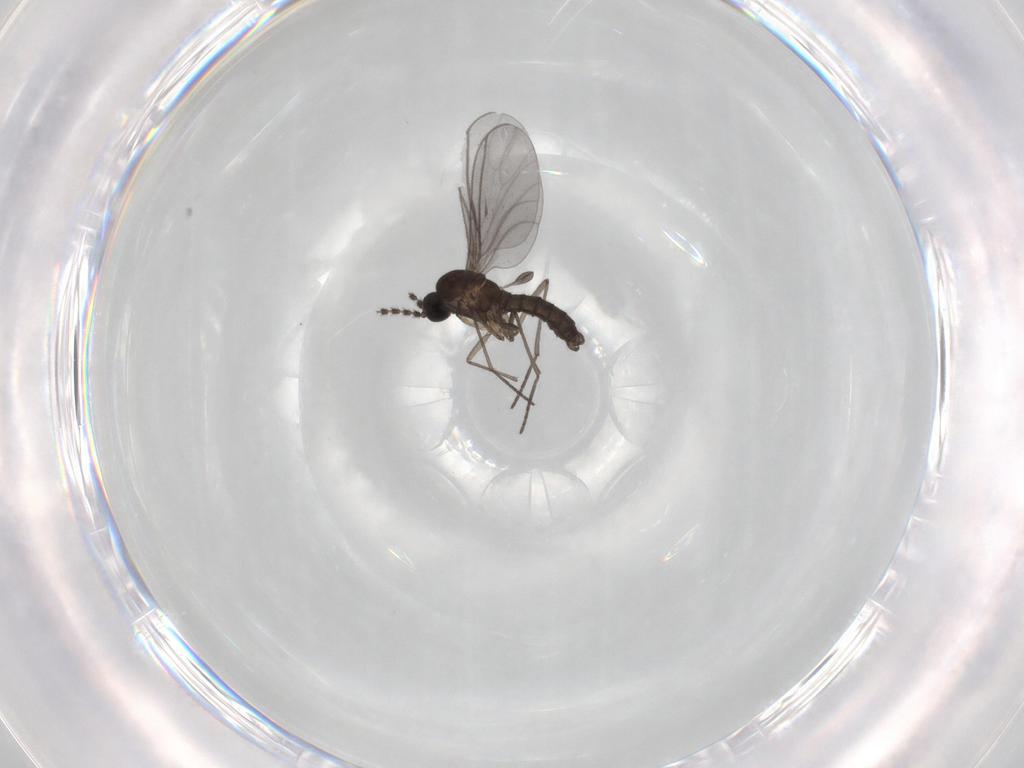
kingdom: Animalia
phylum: Arthropoda
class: Insecta
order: Diptera
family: Sciaridae
